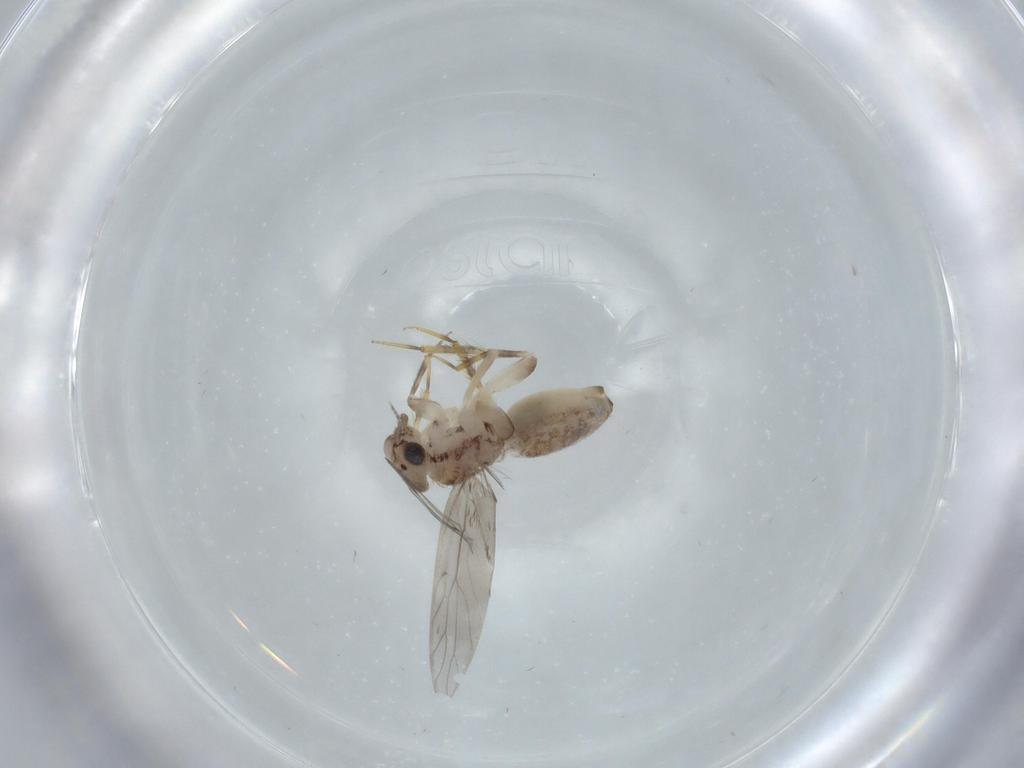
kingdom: Animalia
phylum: Arthropoda
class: Insecta
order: Psocodea
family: Lepidopsocidae
